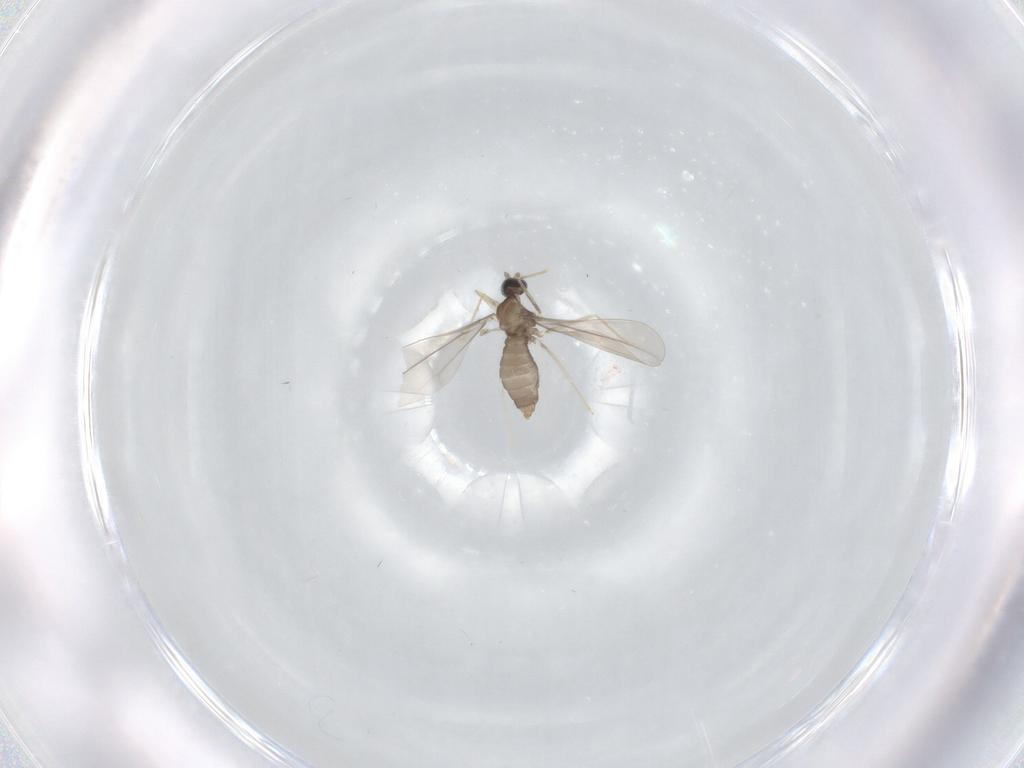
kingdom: Animalia
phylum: Arthropoda
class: Insecta
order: Diptera
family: Cecidomyiidae
